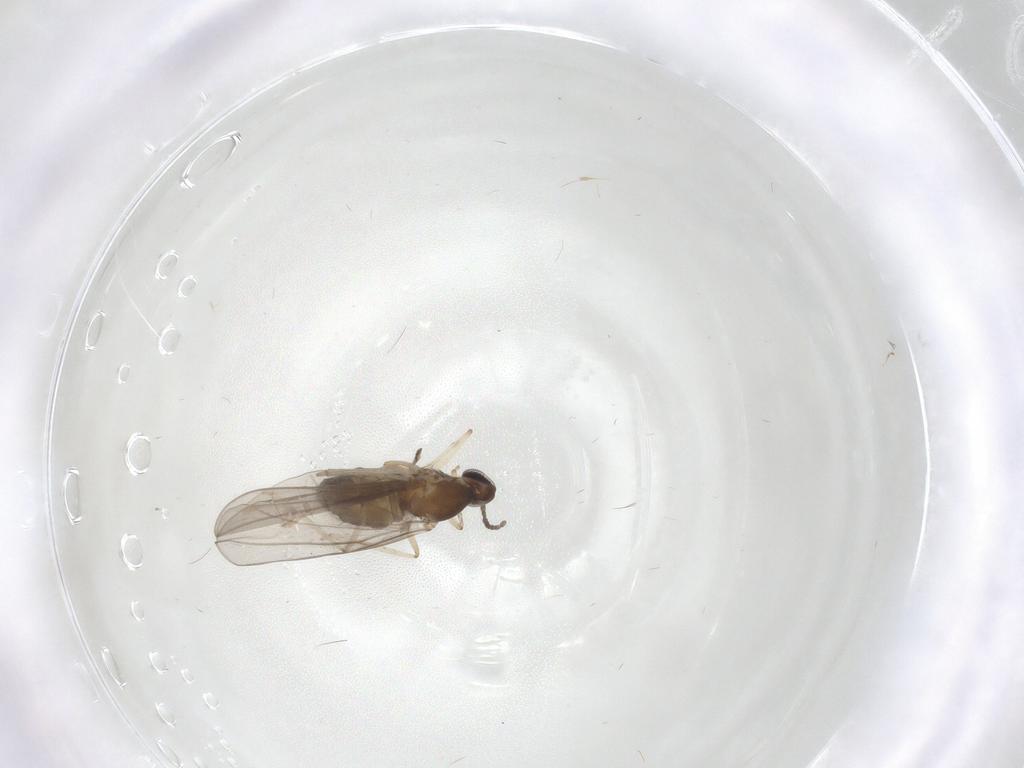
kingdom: Animalia
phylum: Arthropoda
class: Insecta
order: Diptera
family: Cecidomyiidae
